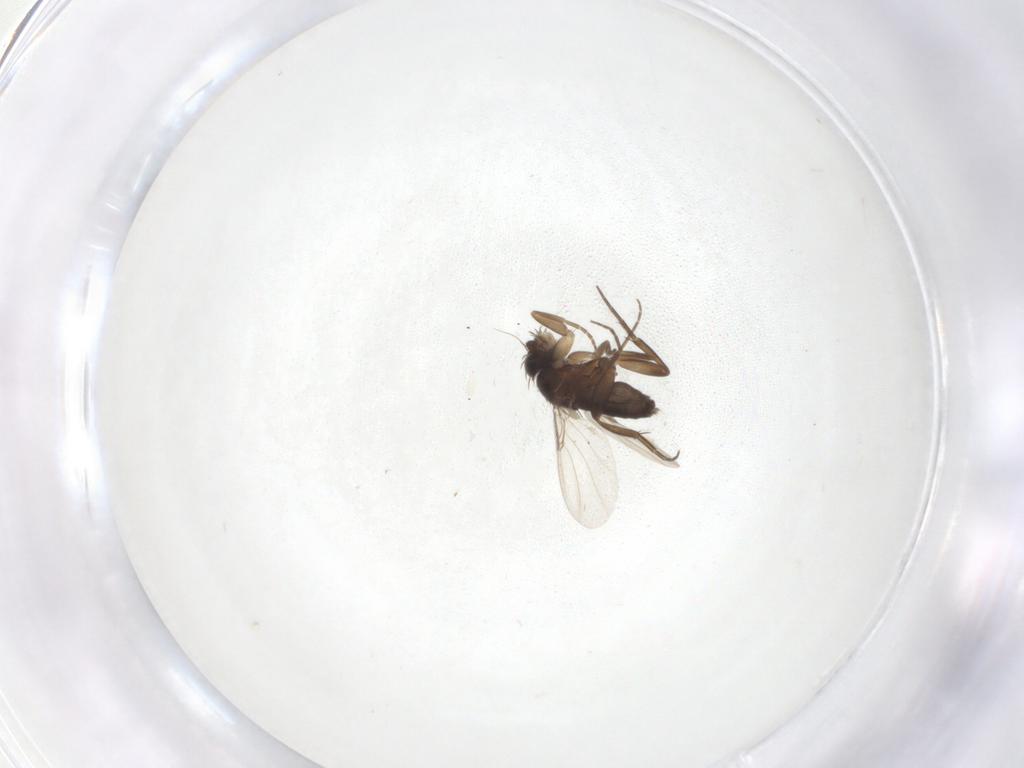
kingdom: Animalia
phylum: Arthropoda
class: Insecta
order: Diptera
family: Phoridae
